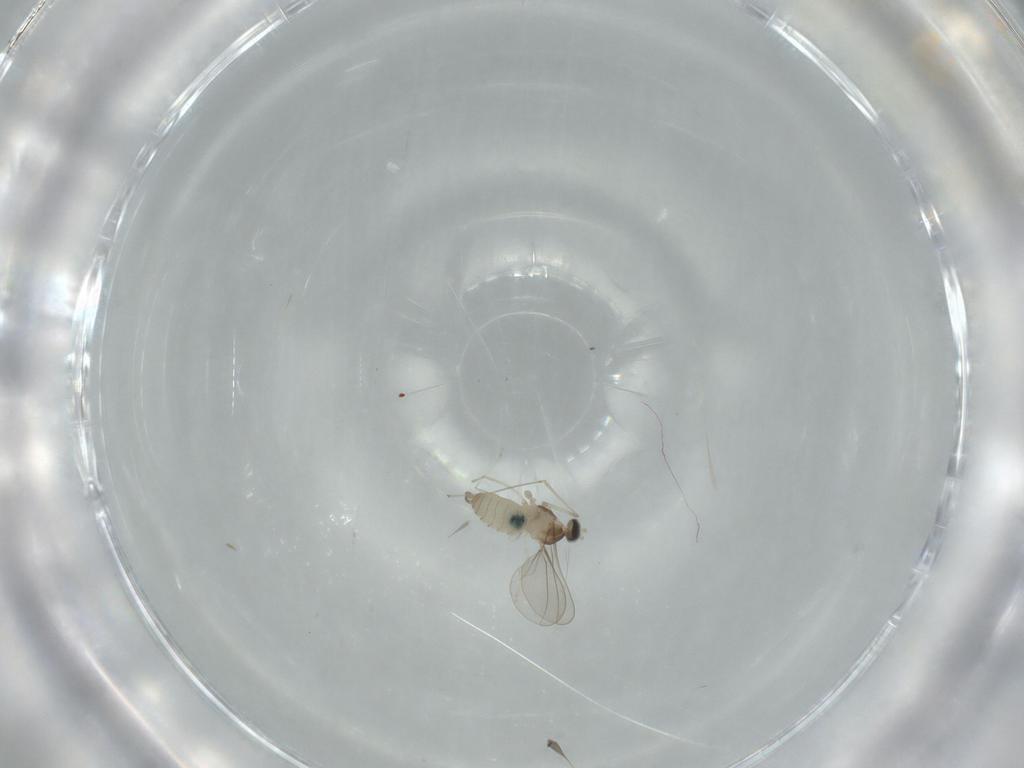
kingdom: Animalia
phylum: Arthropoda
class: Insecta
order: Diptera
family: Cecidomyiidae
